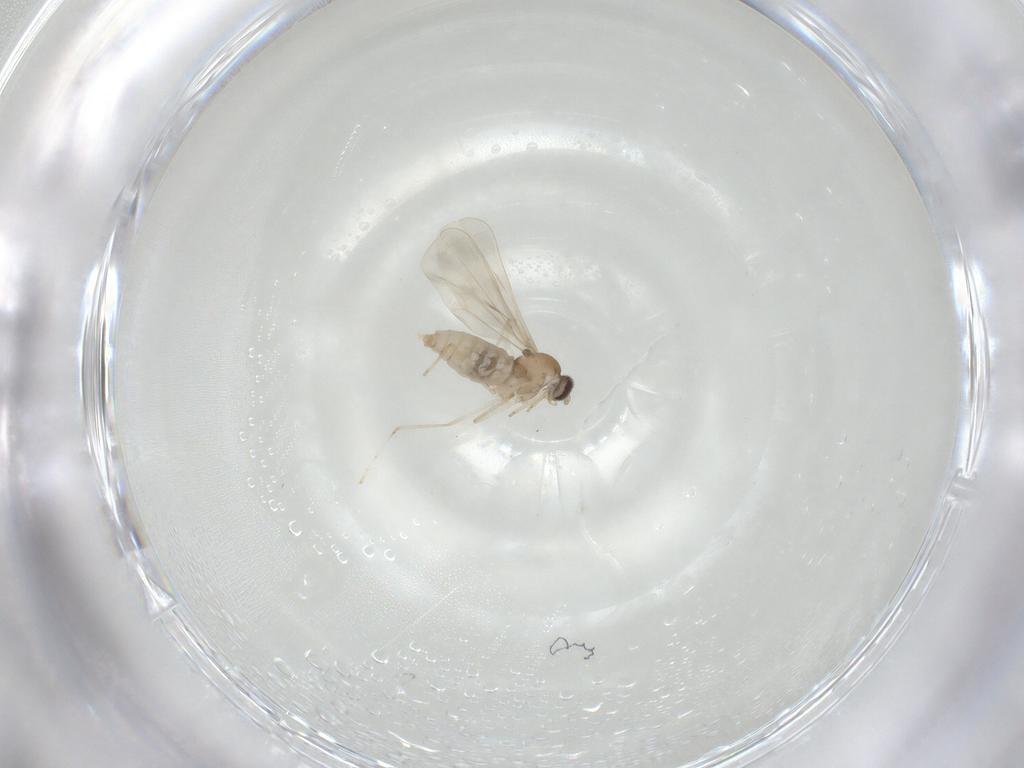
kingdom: Animalia
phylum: Arthropoda
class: Insecta
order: Diptera
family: Cecidomyiidae
